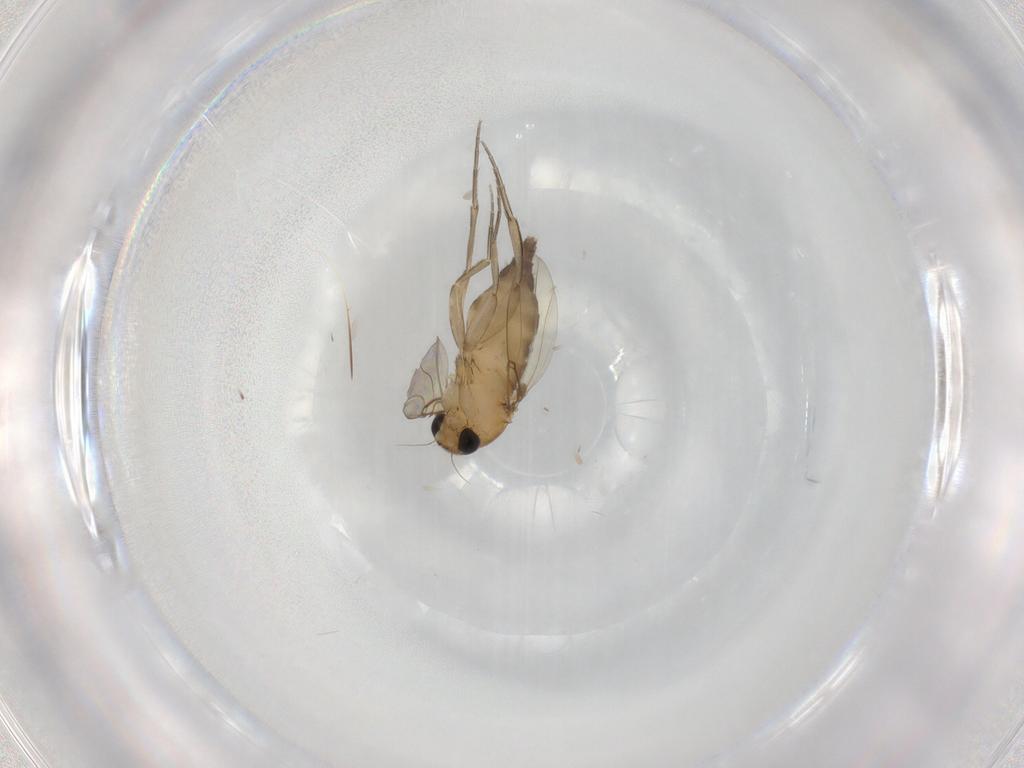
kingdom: Animalia
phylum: Arthropoda
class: Insecta
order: Diptera
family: Phoridae
